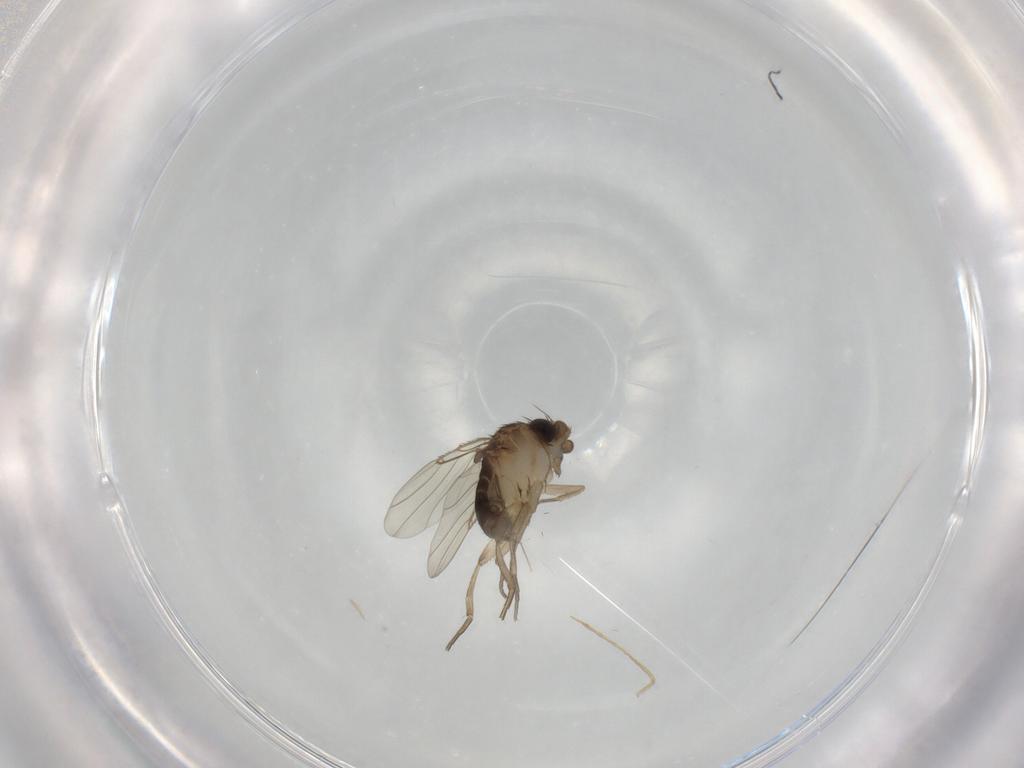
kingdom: Animalia
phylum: Arthropoda
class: Insecta
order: Diptera
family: Phoridae
